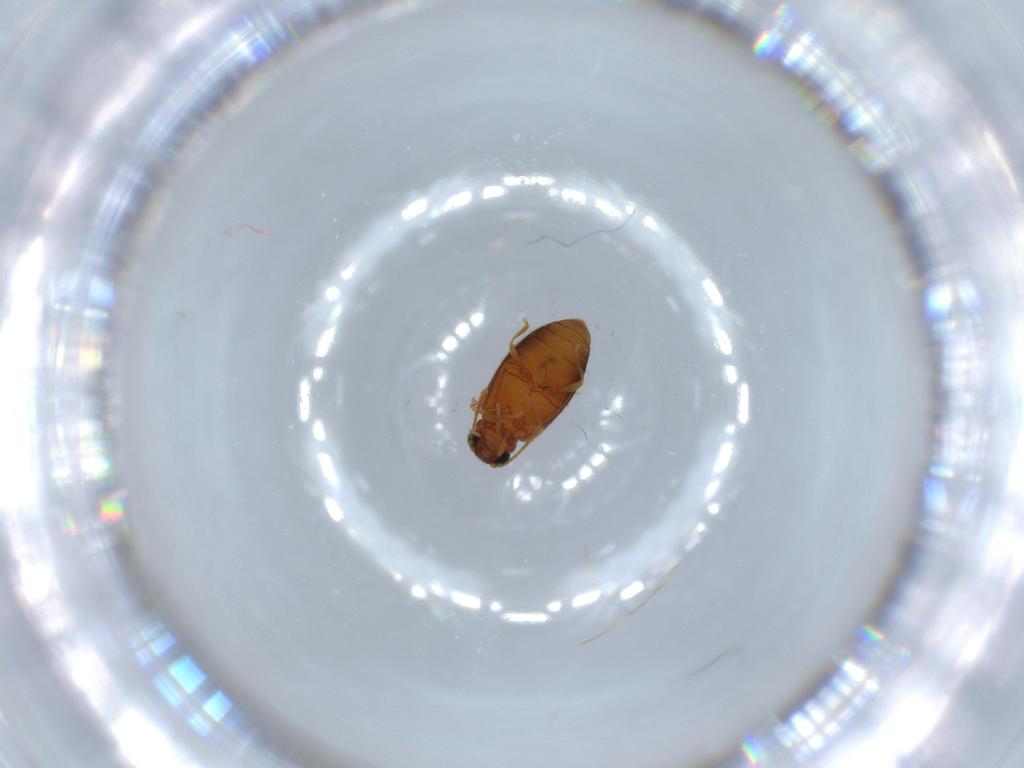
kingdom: Animalia
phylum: Arthropoda
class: Insecta
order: Coleoptera
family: Aderidae
